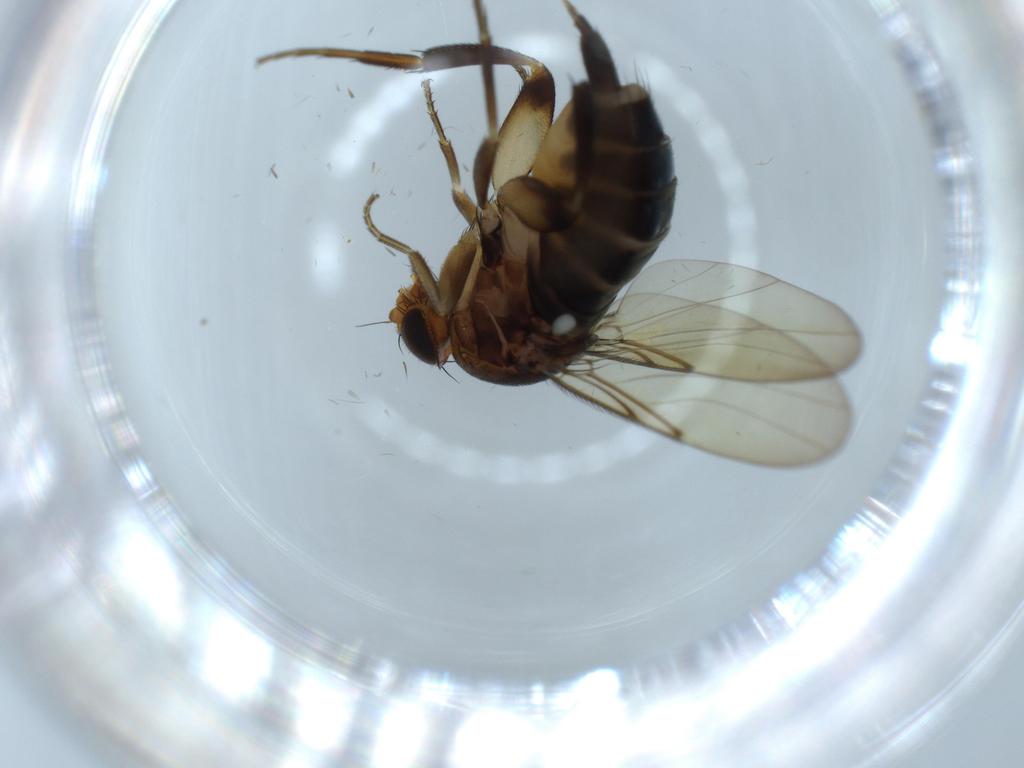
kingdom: Animalia
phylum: Arthropoda
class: Insecta
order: Diptera
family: Phoridae
